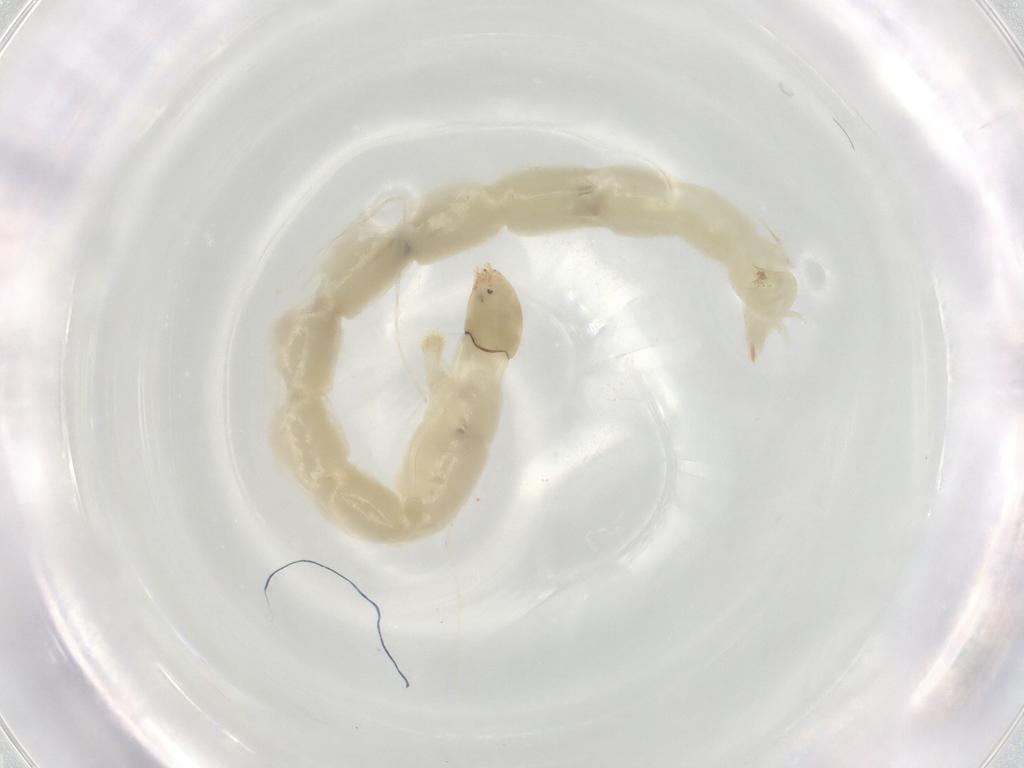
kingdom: Animalia
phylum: Arthropoda
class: Insecta
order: Diptera
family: Chironomidae
